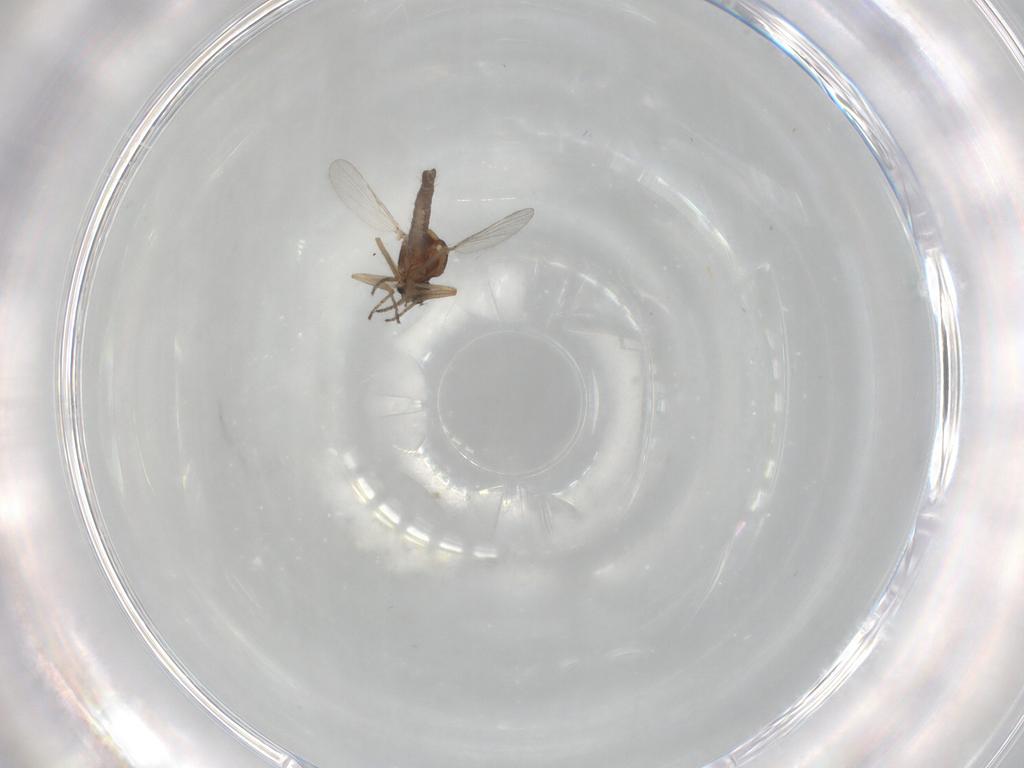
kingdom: Animalia
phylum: Arthropoda
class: Insecta
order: Diptera
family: Chironomidae
